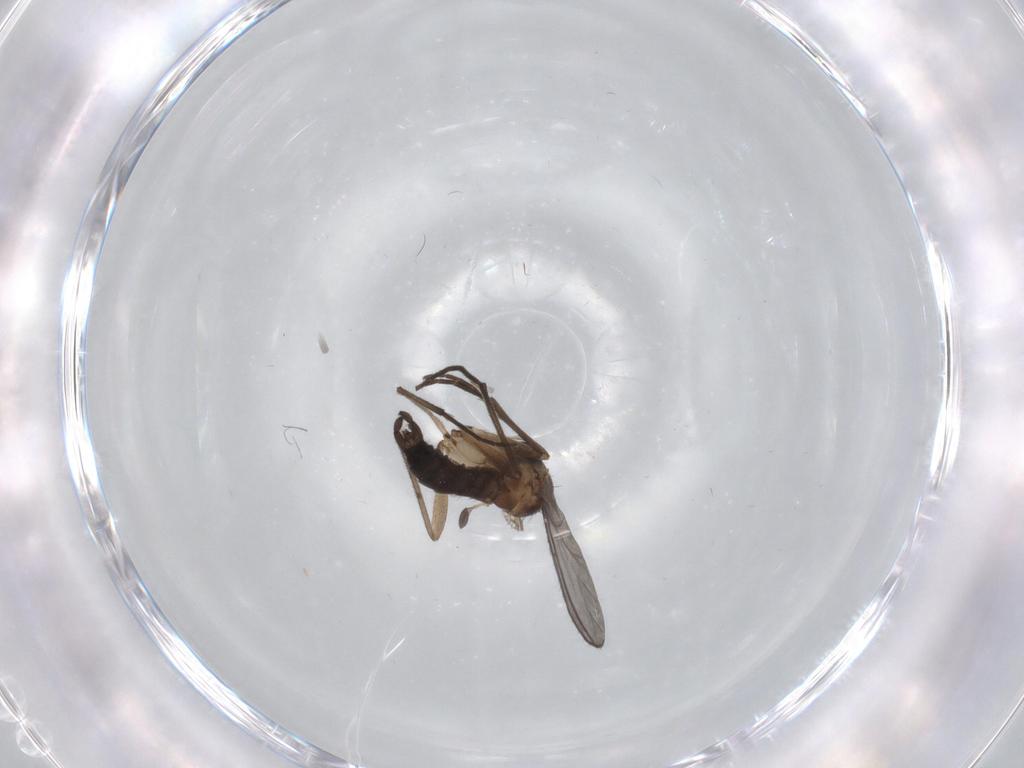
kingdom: Animalia
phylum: Arthropoda
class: Insecta
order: Diptera
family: Sciaridae
